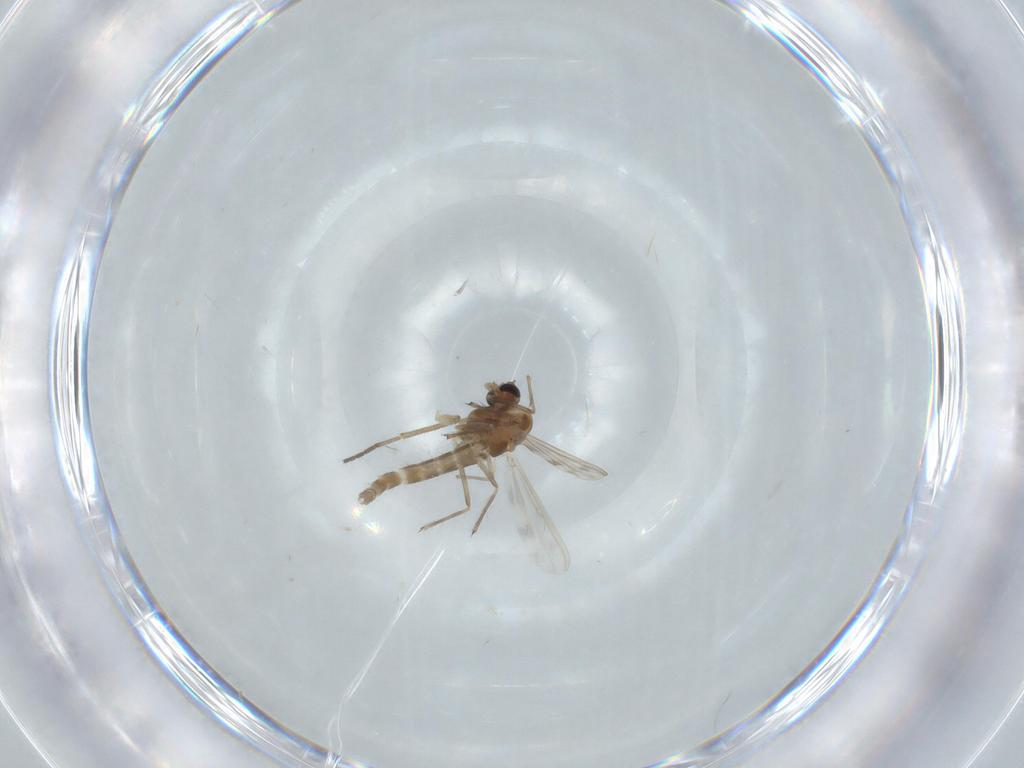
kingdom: Animalia
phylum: Arthropoda
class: Insecta
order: Diptera
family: Chironomidae
